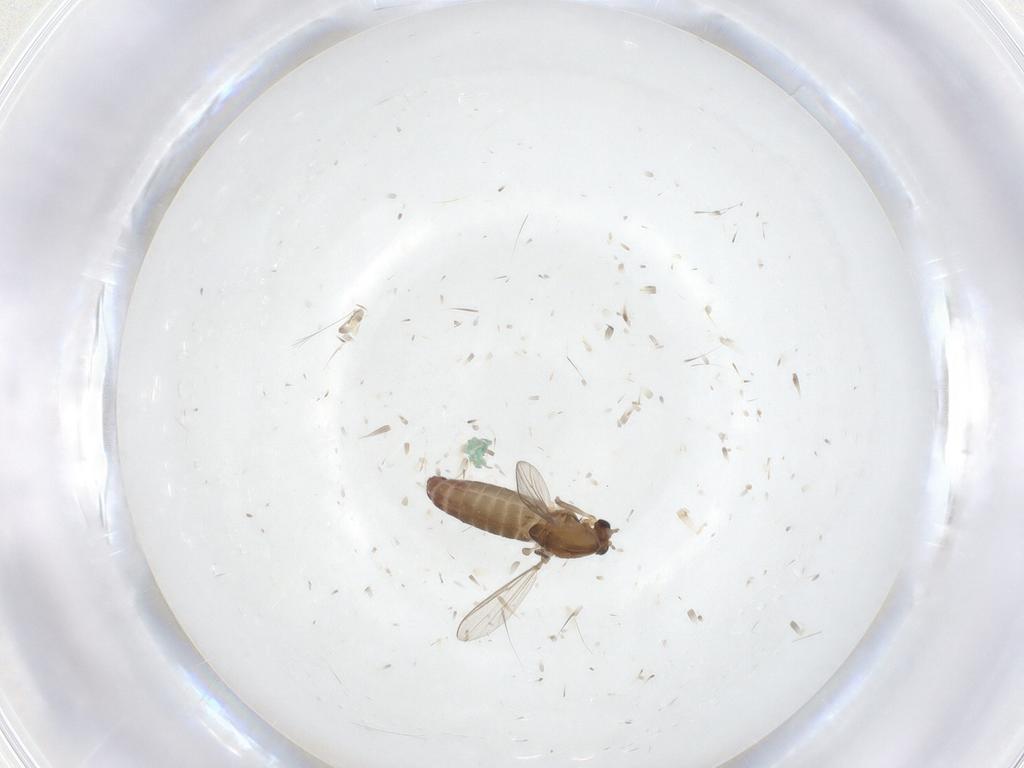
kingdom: Animalia
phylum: Arthropoda
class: Insecta
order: Diptera
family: Chironomidae
